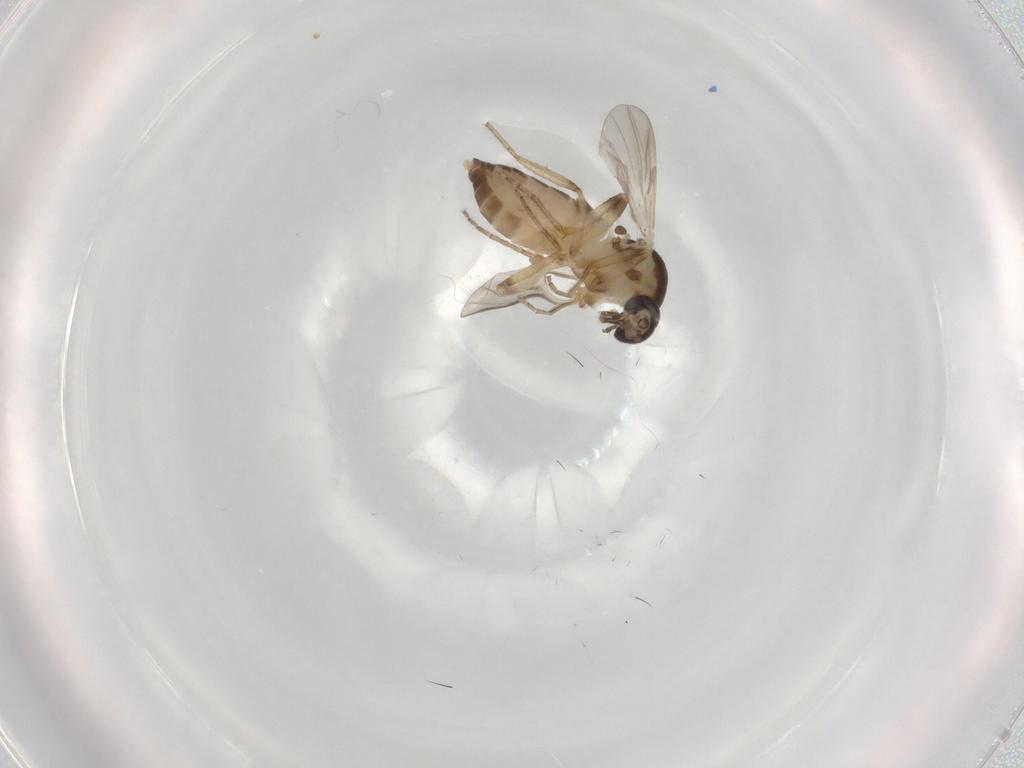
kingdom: Animalia
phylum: Arthropoda
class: Insecta
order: Diptera
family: Ceratopogonidae
